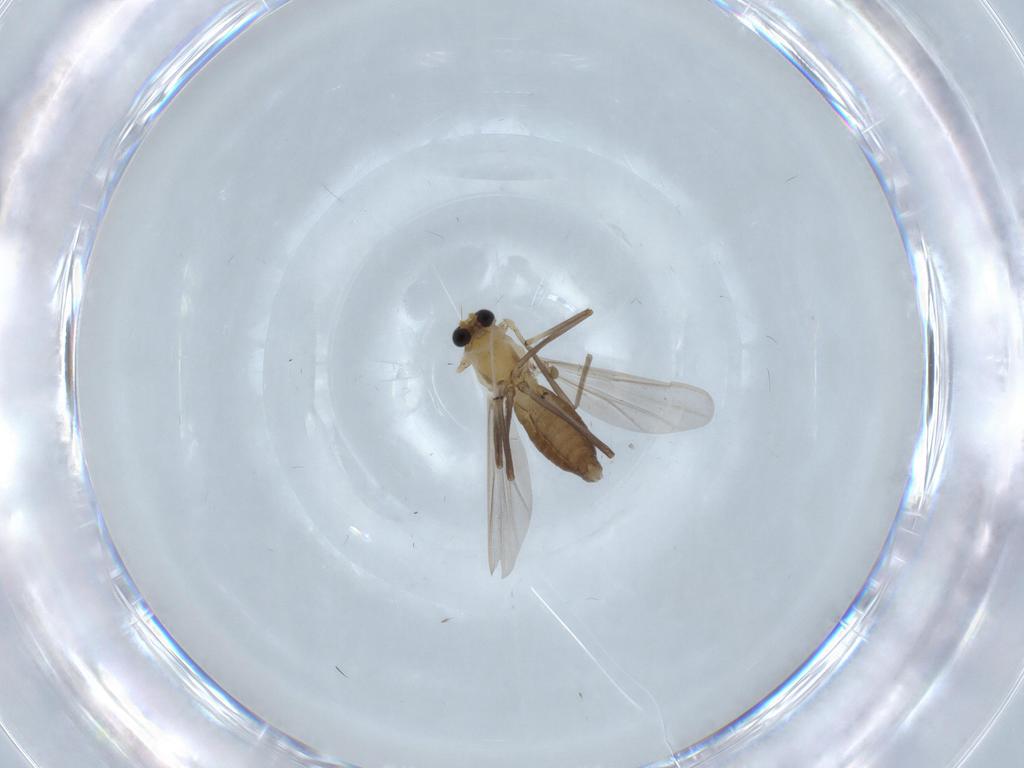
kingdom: Animalia
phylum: Arthropoda
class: Insecta
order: Diptera
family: Chironomidae
